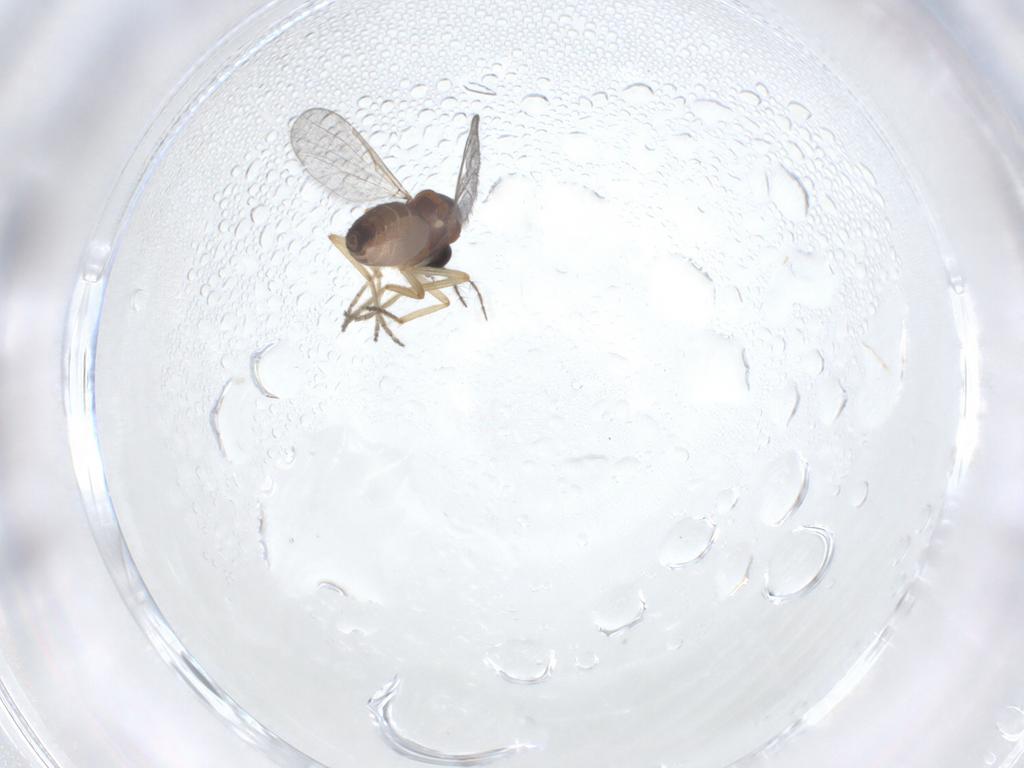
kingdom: Animalia
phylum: Arthropoda
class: Insecta
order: Diptera
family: Ceratopogonidae
